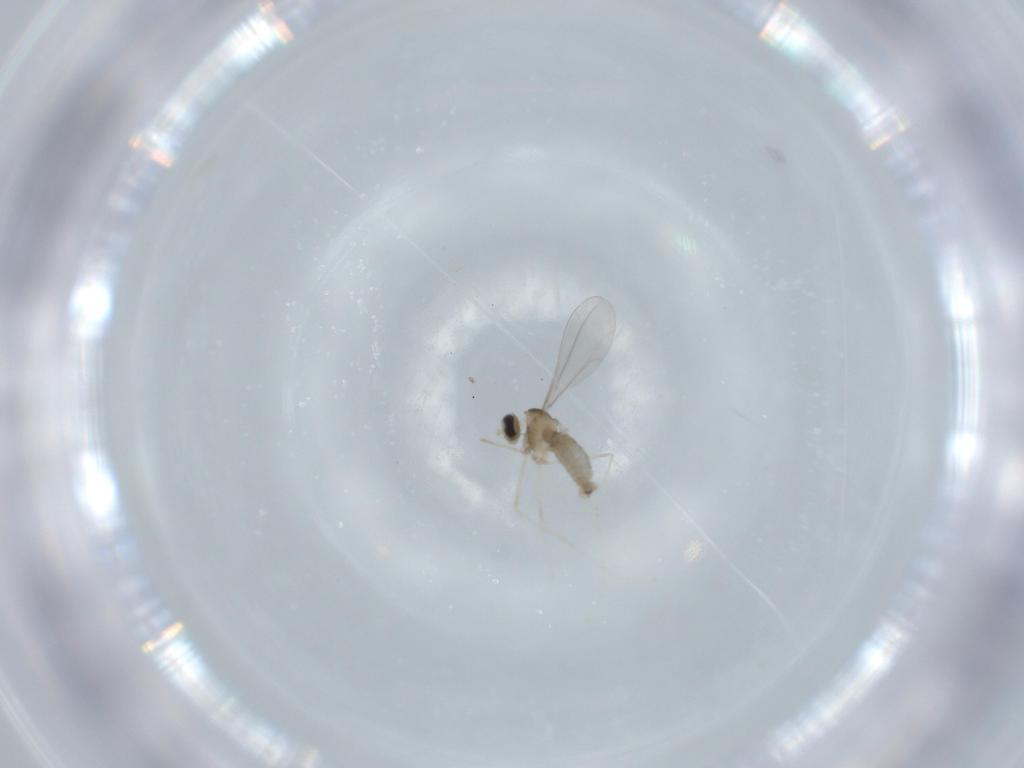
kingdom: Animalia
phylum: Arthropoda
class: Insecta
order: Diptera
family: Cecidomyiidae
